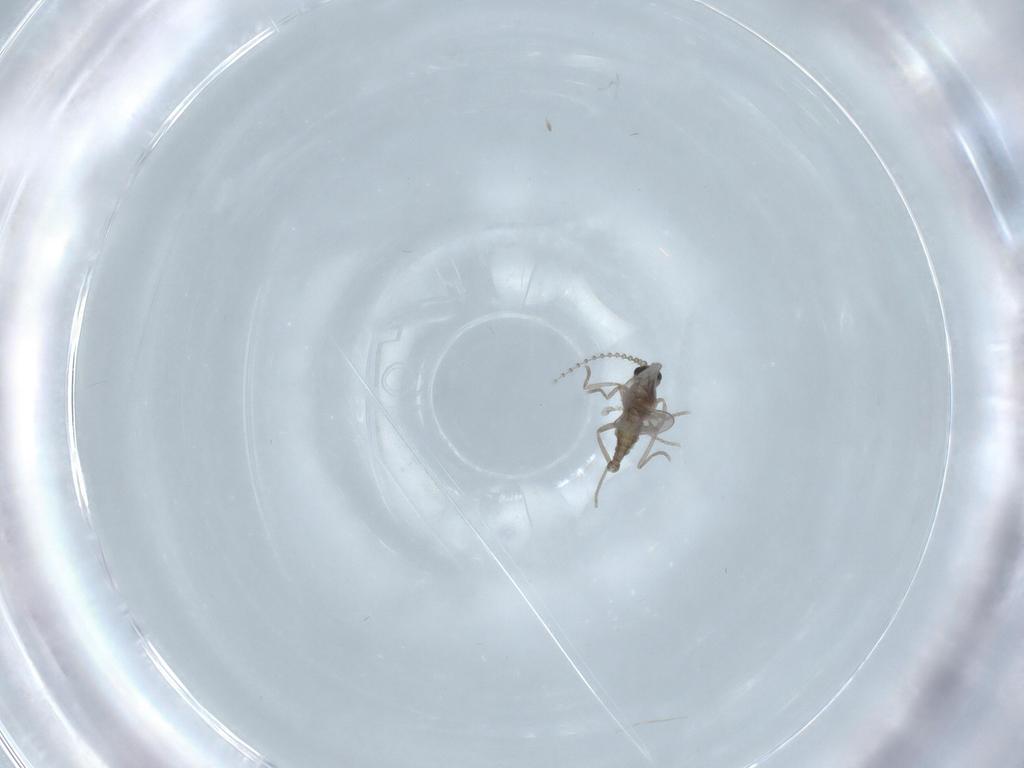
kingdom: Animalia
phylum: Arthropoda
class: Insecta
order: Diptera
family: Cecidomyiidae
